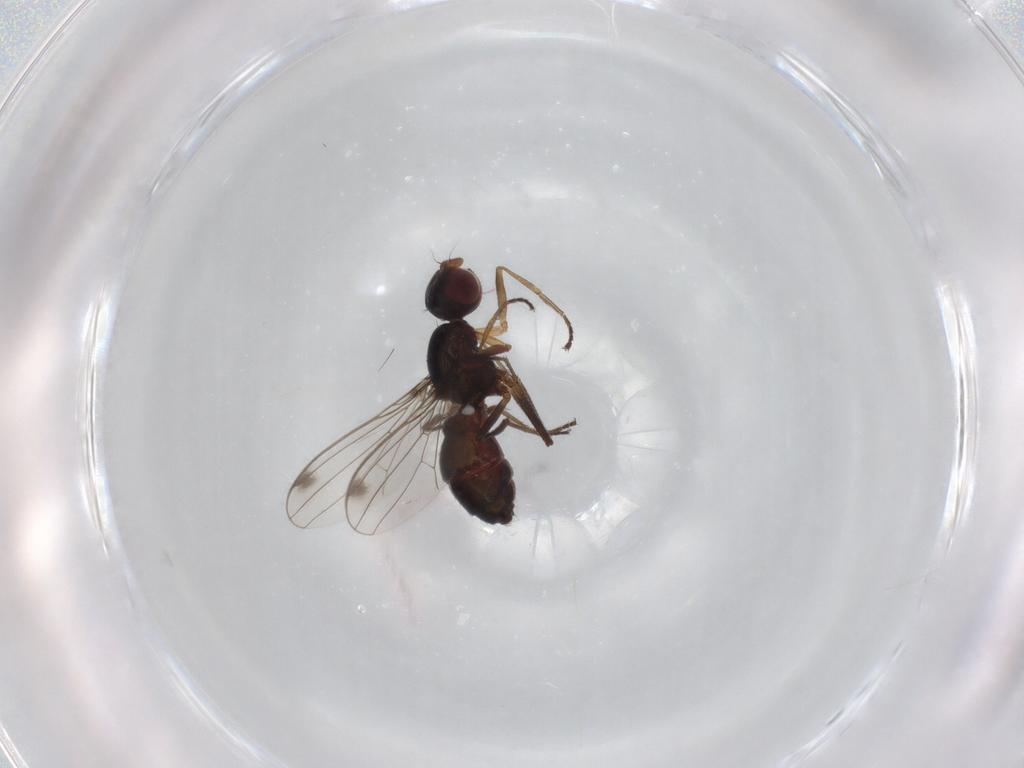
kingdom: Animalia
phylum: Arthropoda
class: Insecta
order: Diptera
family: Sepsidae
